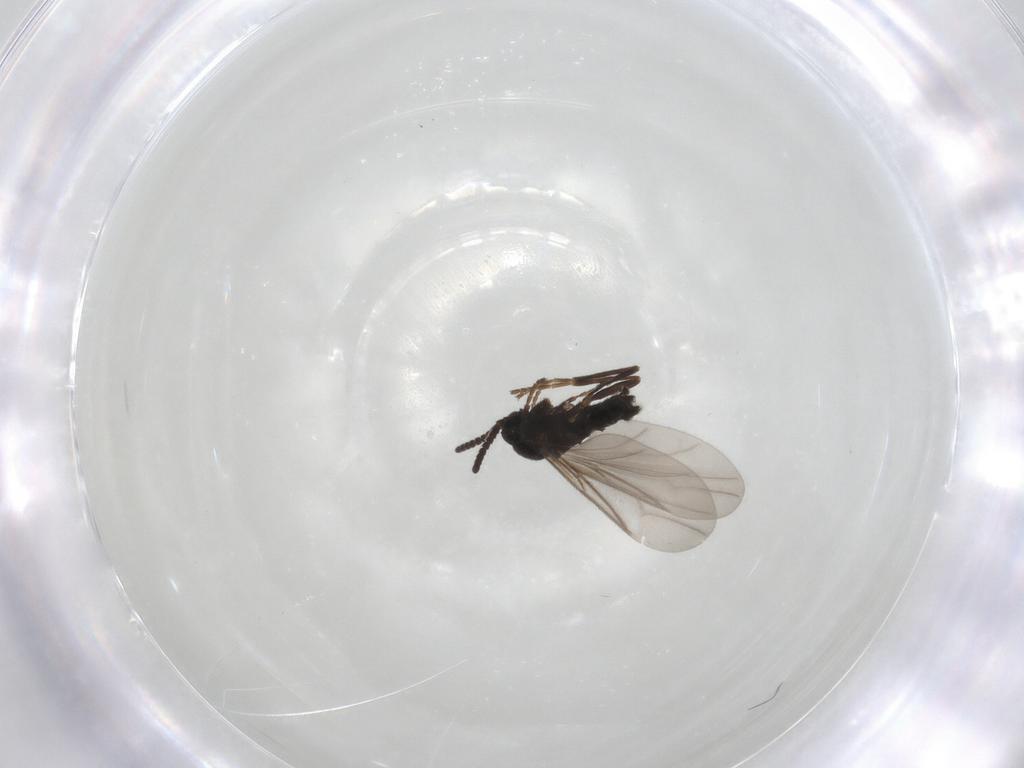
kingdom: Animalia
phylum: Arthropoda
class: Insecta
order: Diptera
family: Scatopsidae
